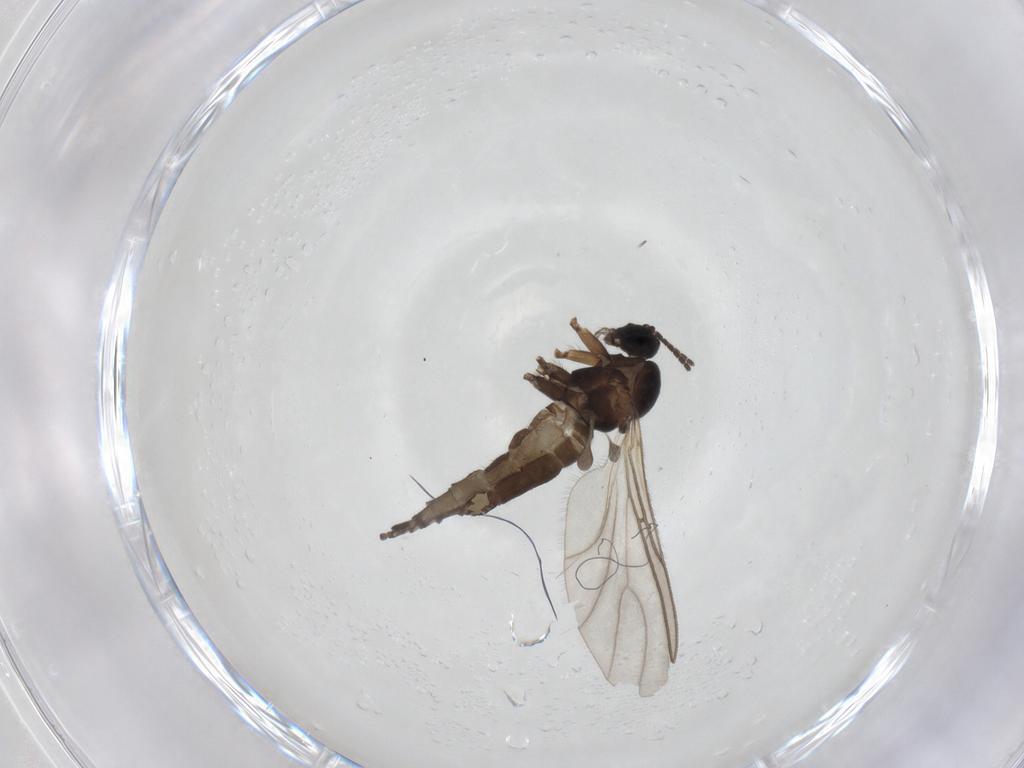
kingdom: Animalia
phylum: Arthropoda
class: Insecta
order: Diptera
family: Sciaridae
